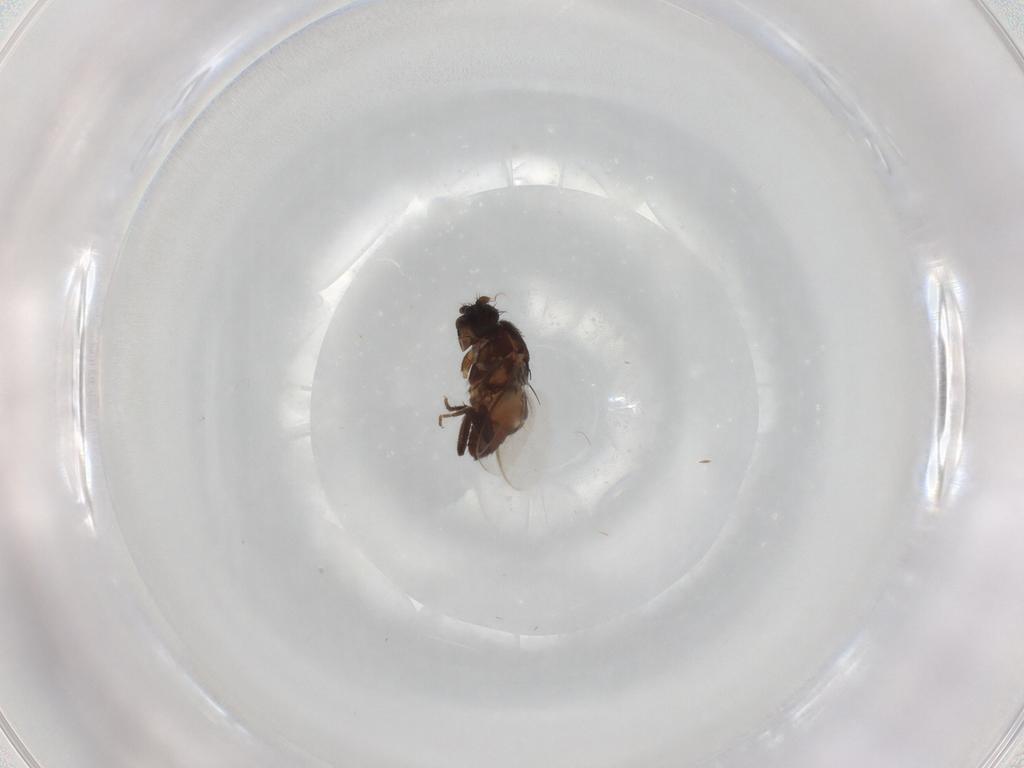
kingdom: Animalia
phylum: Arthropoda
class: Insecta
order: Diptera
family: Sphaeroceridae
